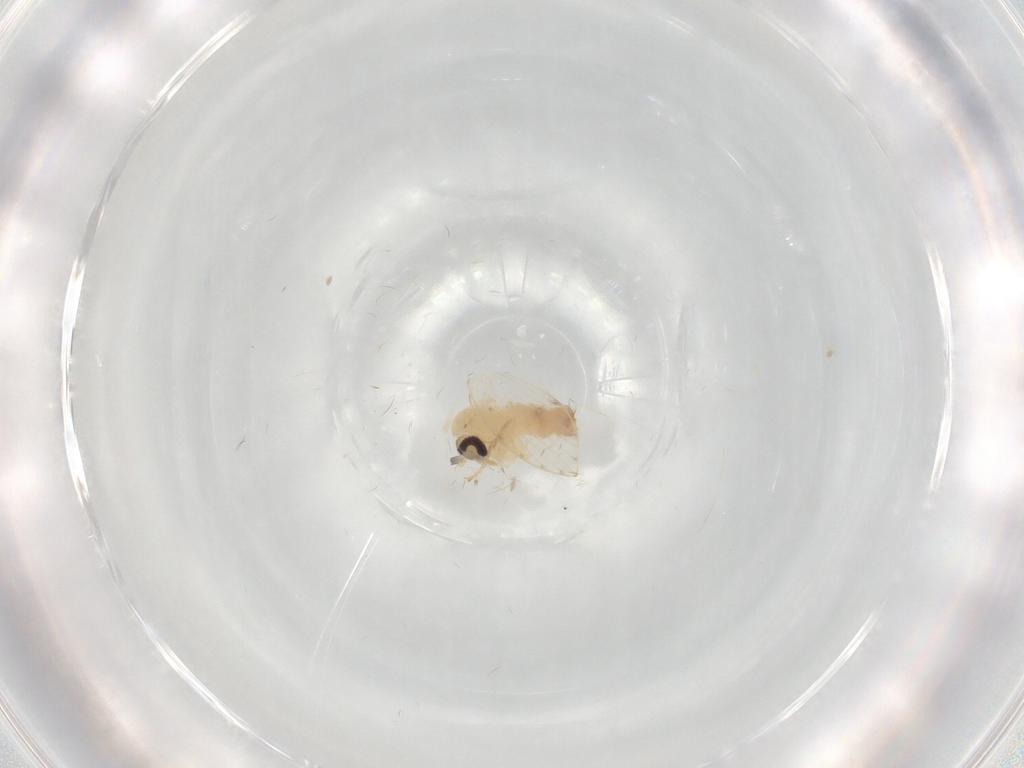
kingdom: Animalia
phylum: Arthropoda
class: Insecta
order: Diptera
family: Psychodidae
